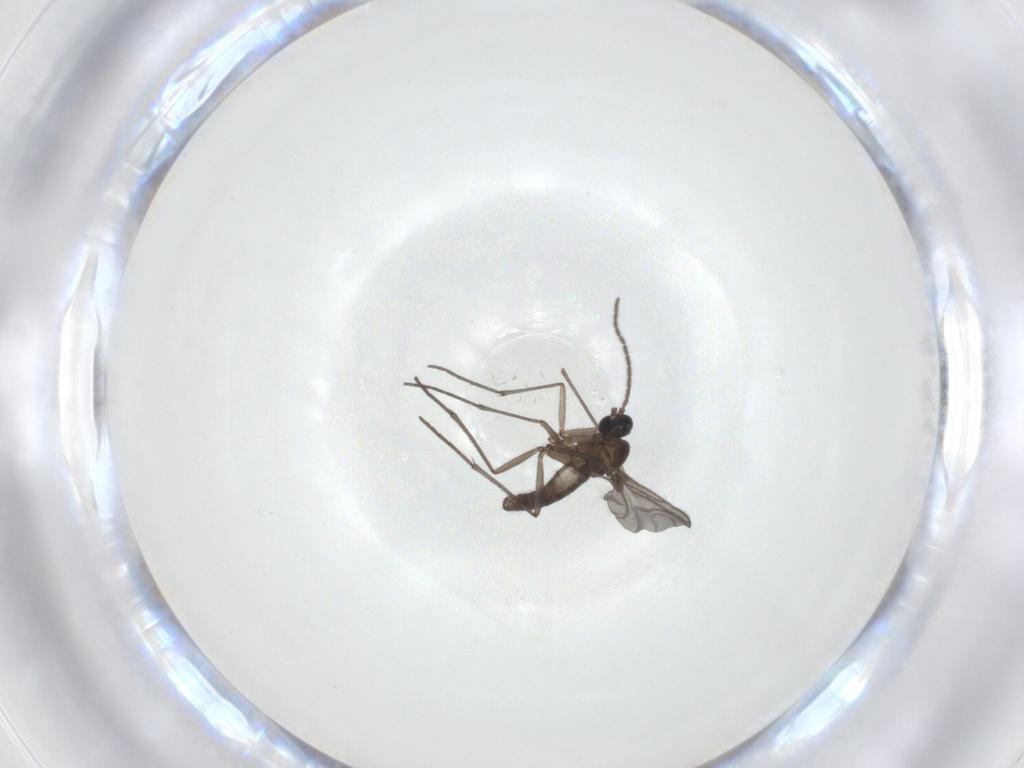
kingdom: Animalia
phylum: Arthropoda
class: Insecta
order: Diptera
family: Sciaridae
